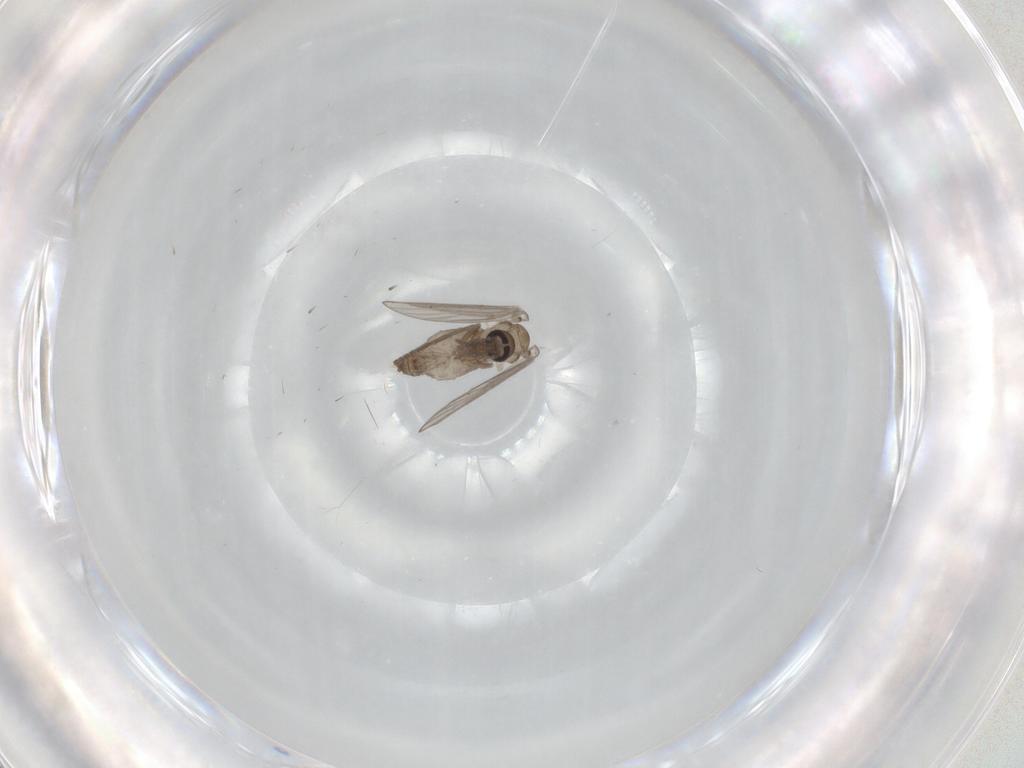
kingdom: Animalia
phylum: Arthropoda
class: Insecta
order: Diptera
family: Psychodidae
